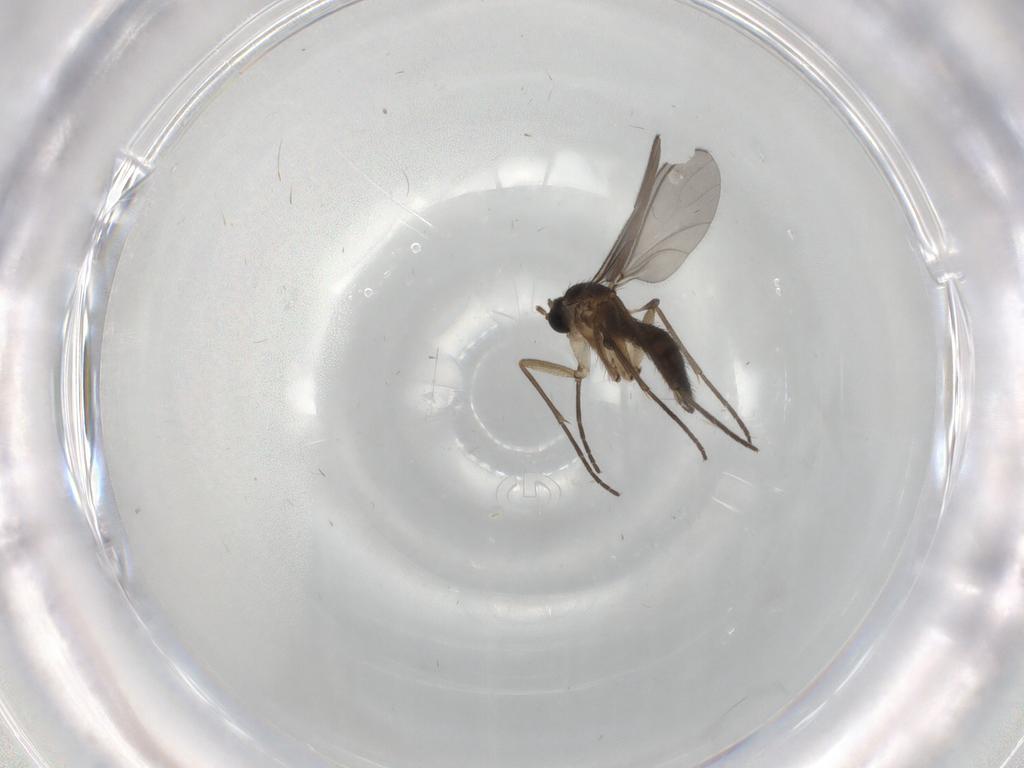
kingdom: Animalia
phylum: Arthropoda
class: Insecta
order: Diptera
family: Sciaridae
